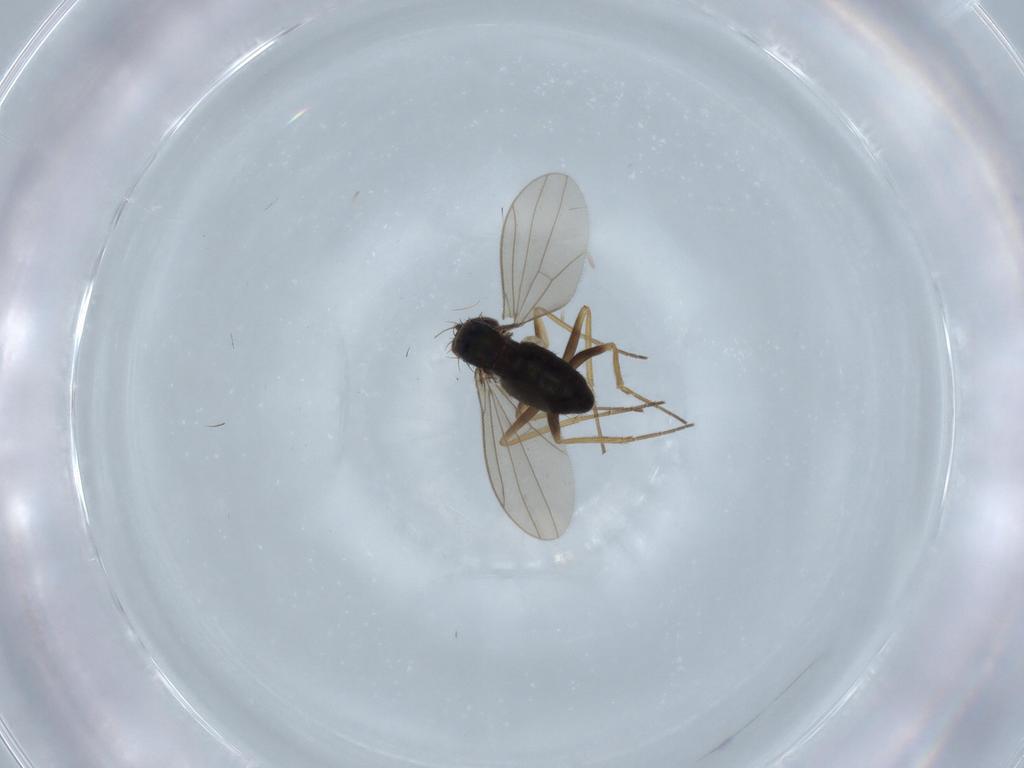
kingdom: Animalia
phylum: Arthropoda
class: Insecta
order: Diptera
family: Dolichopodidae
